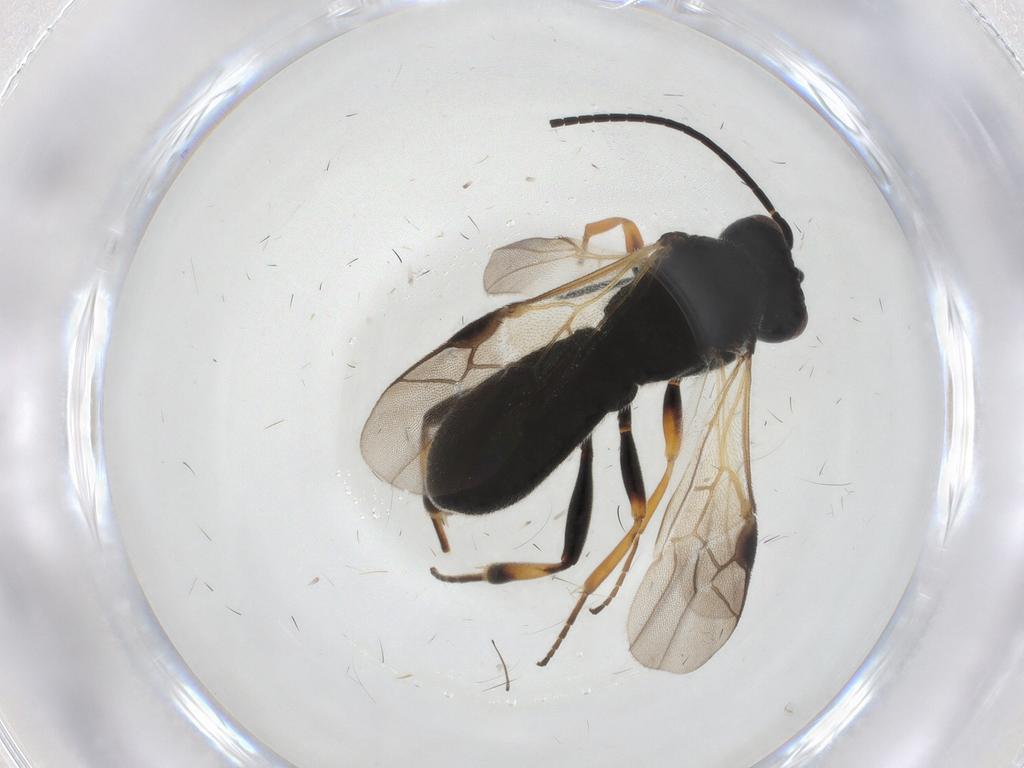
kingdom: Animalia
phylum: Arthropoda
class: Insecta
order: Hymenoptera
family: Braconidae
